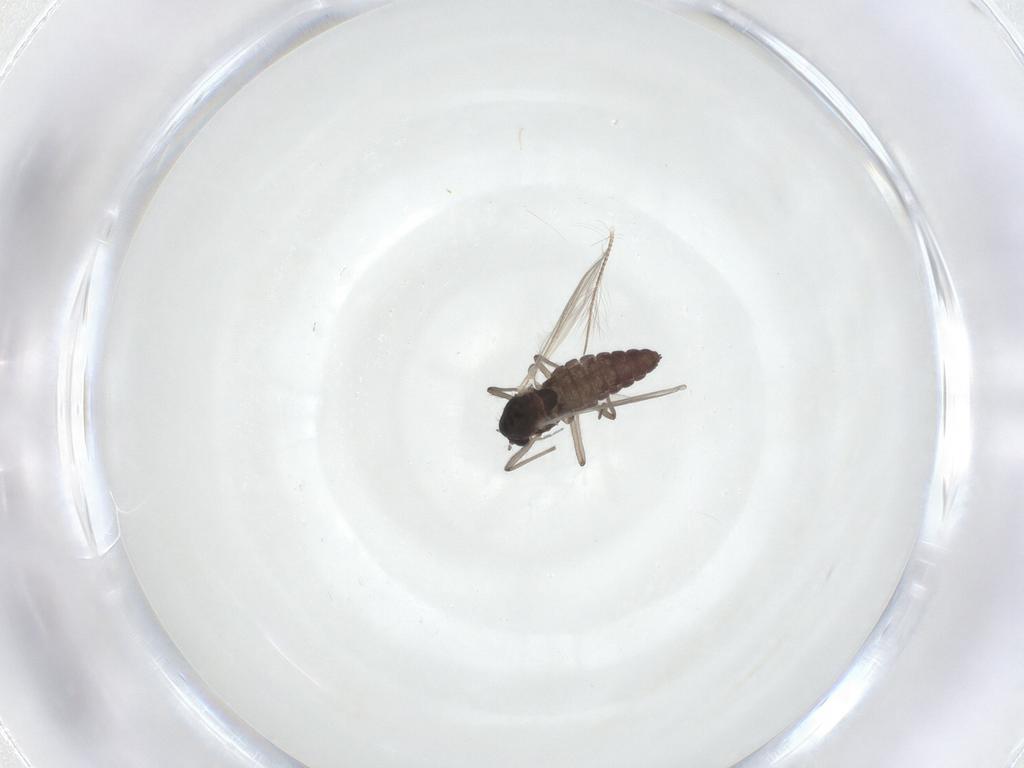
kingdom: Animalia
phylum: Arthropoda
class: Insecta
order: Diptera
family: Chironomidae
